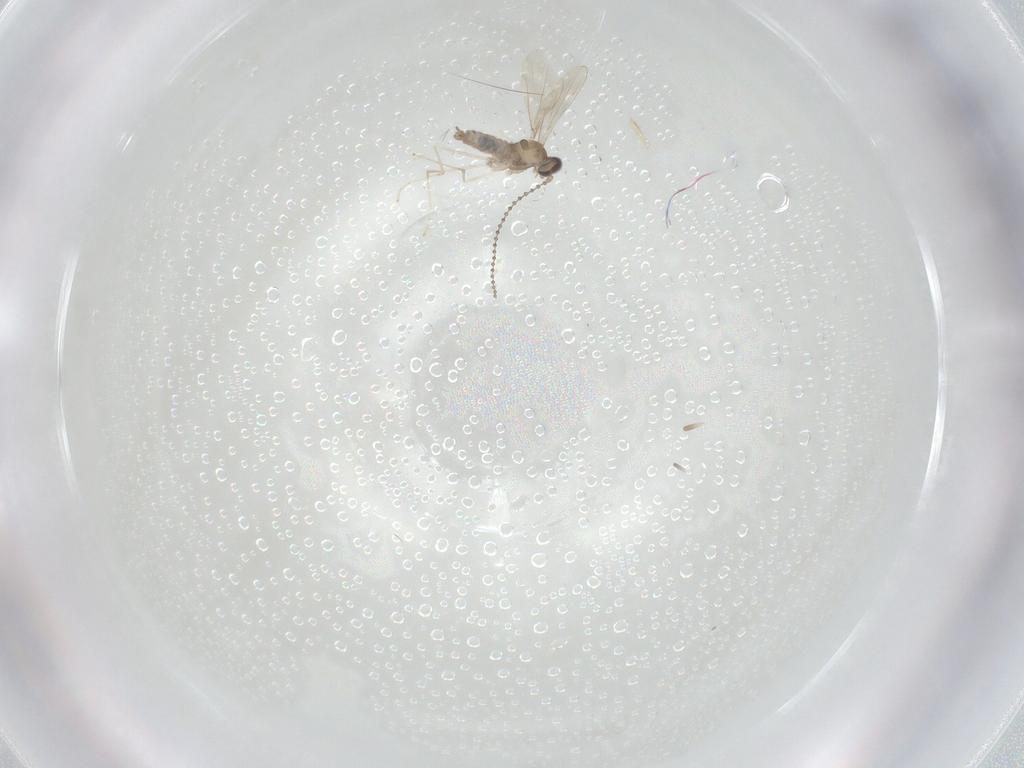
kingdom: Animalia
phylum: Arthropoda
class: Insecta
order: Diptera
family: Cecidomyiidae
